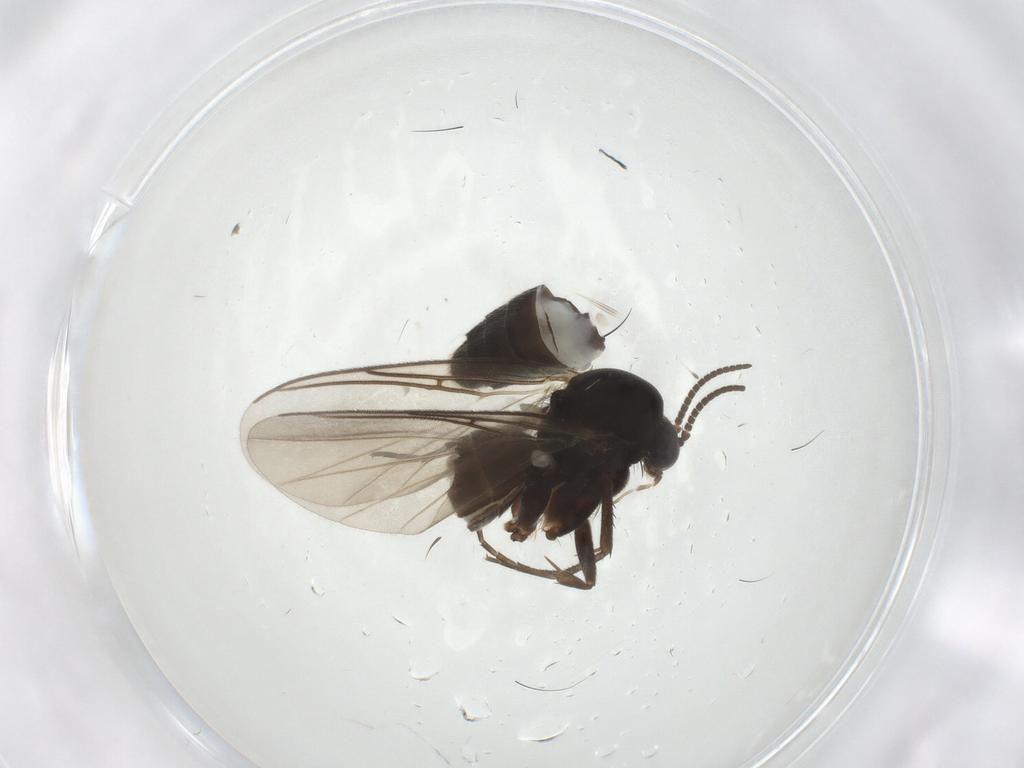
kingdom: Animalia
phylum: Arthropoda
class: Insecta
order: Diptera
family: Mycetophilidae
